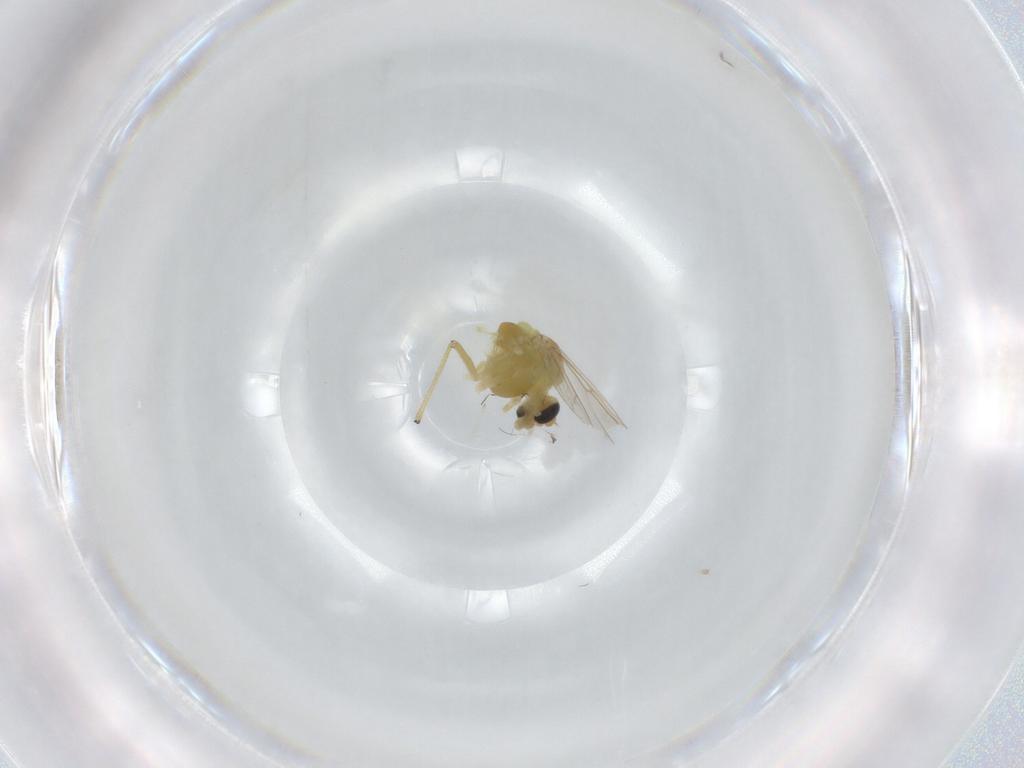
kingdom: Animalia
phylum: Arthropoda
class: Insecta
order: Diptera
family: Chironomidae
